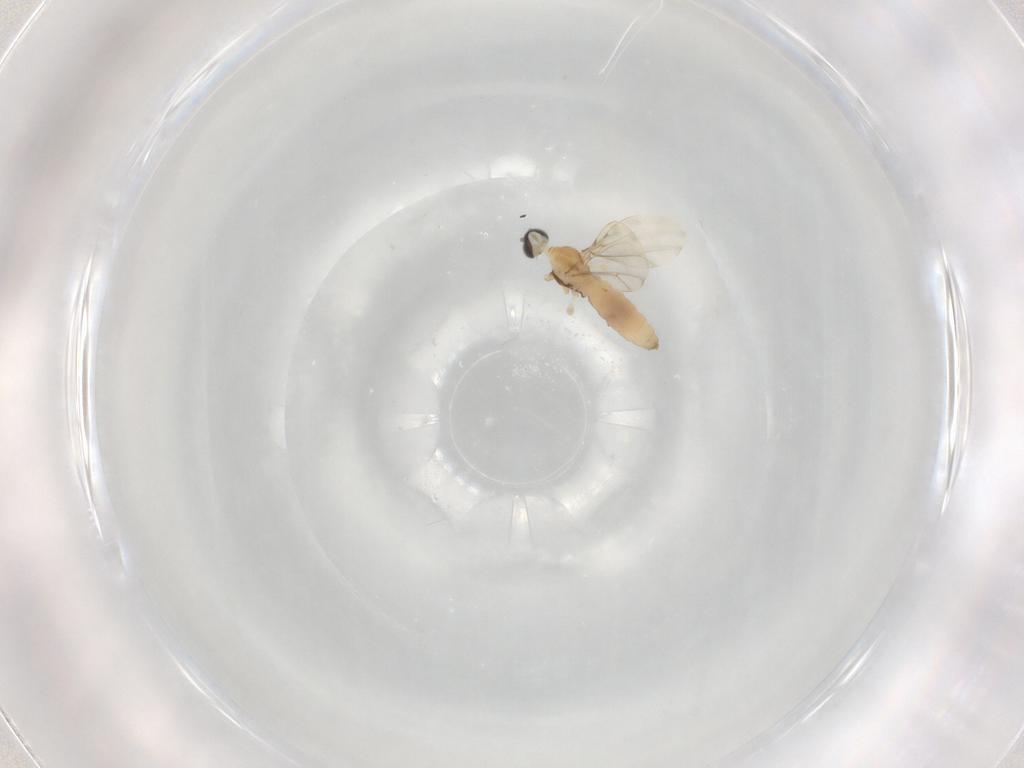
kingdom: Animalia
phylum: Arthropoda
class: Insecta
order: Diptera
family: Cecidomyiidae
